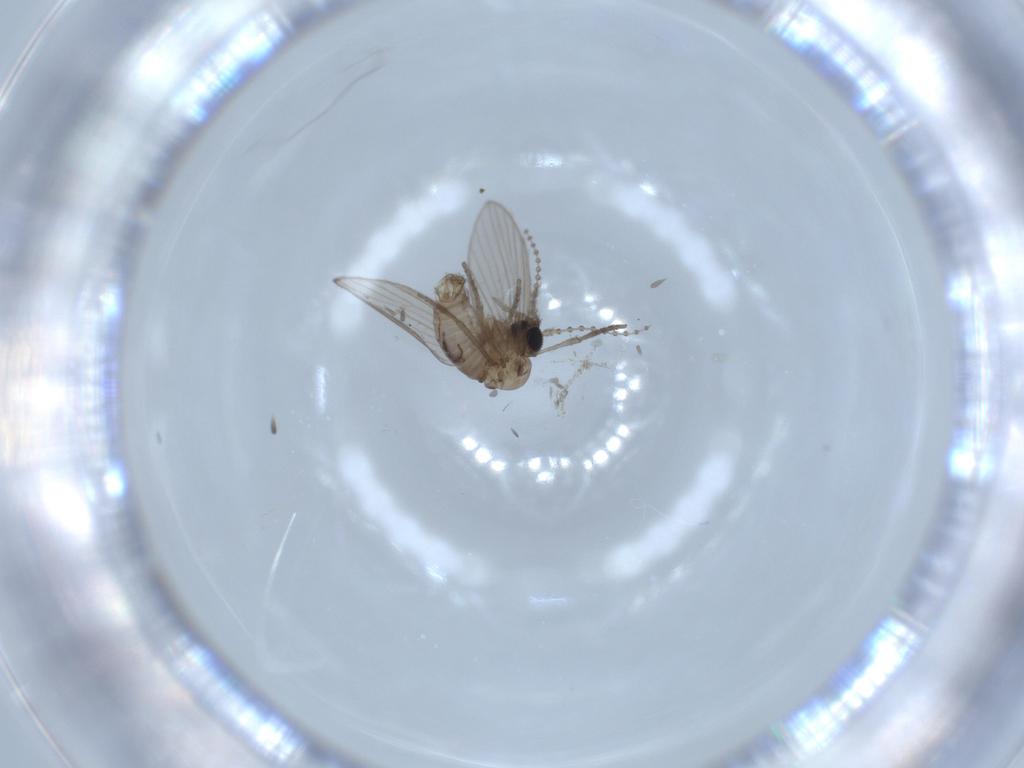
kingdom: Animalia
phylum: Arthropoda
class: Insecta
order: Diptera
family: Psychodidae
